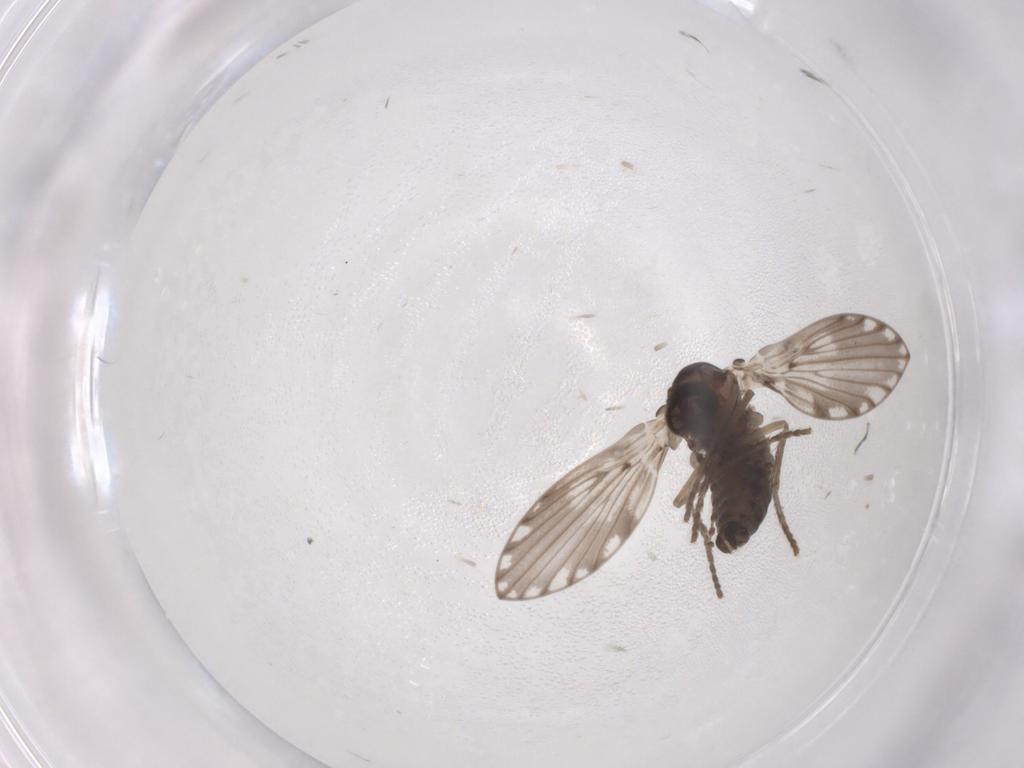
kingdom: Animalia
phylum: Arthropoda
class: Insecta
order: Diptera
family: Psychodidae
